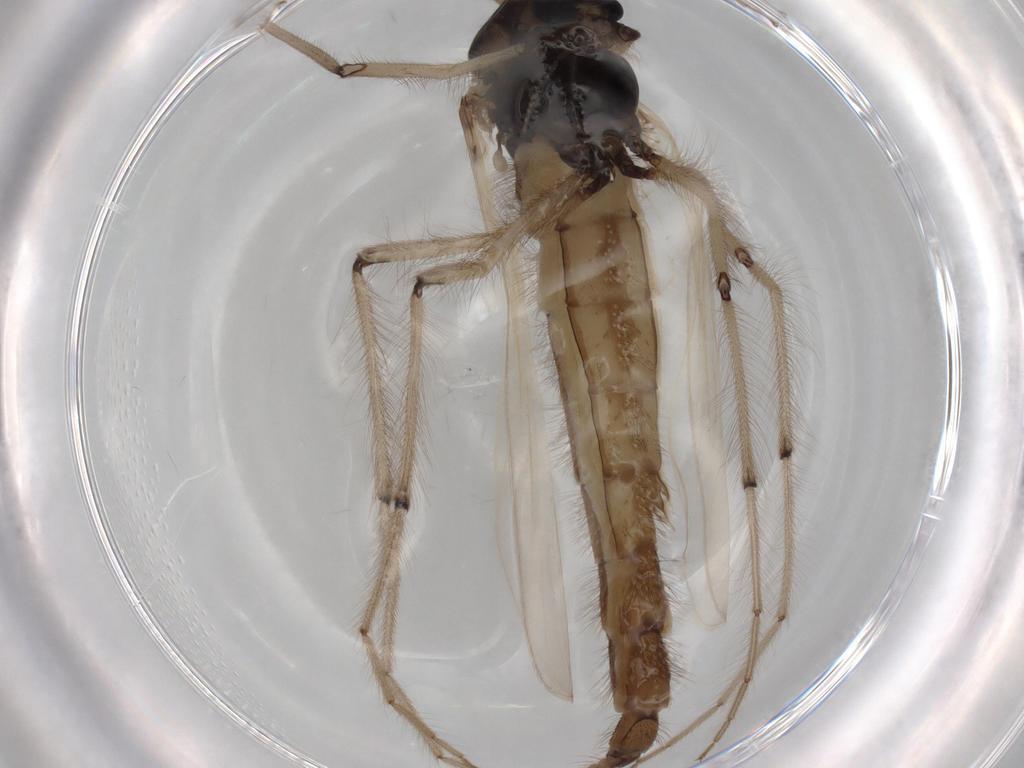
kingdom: Animalia
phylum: Arthropoda
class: Insecta
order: Diptera
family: Chironomidae
